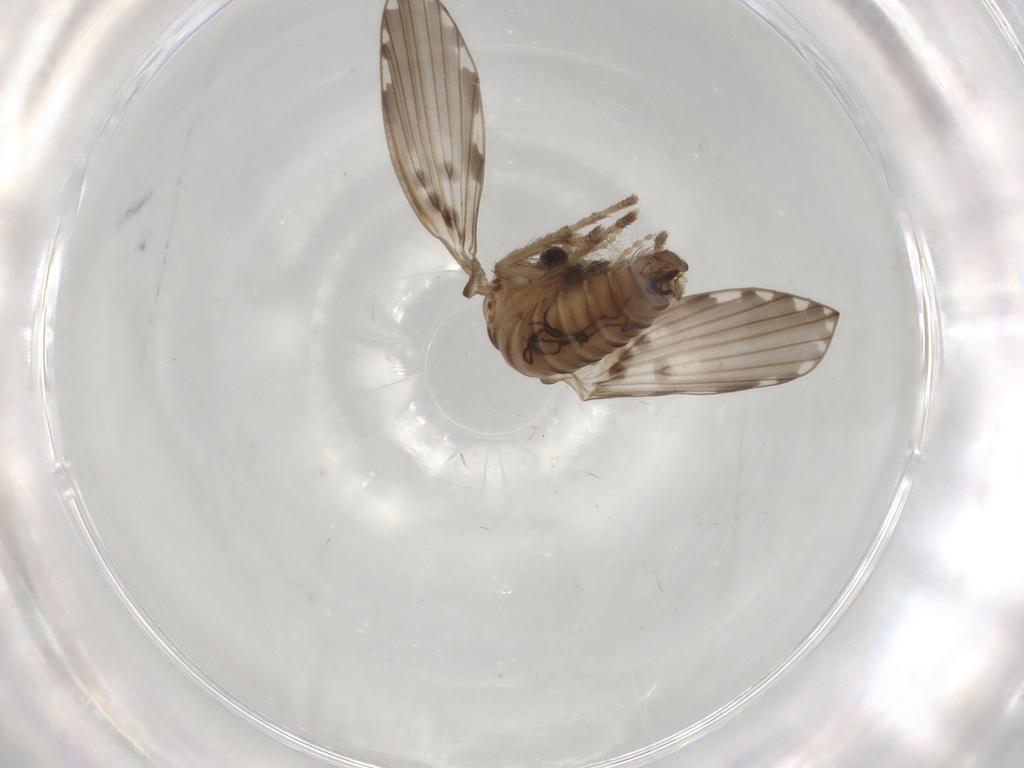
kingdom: Animalia
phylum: Arthropoda
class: Insecta
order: Diptera
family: Psychodidae
